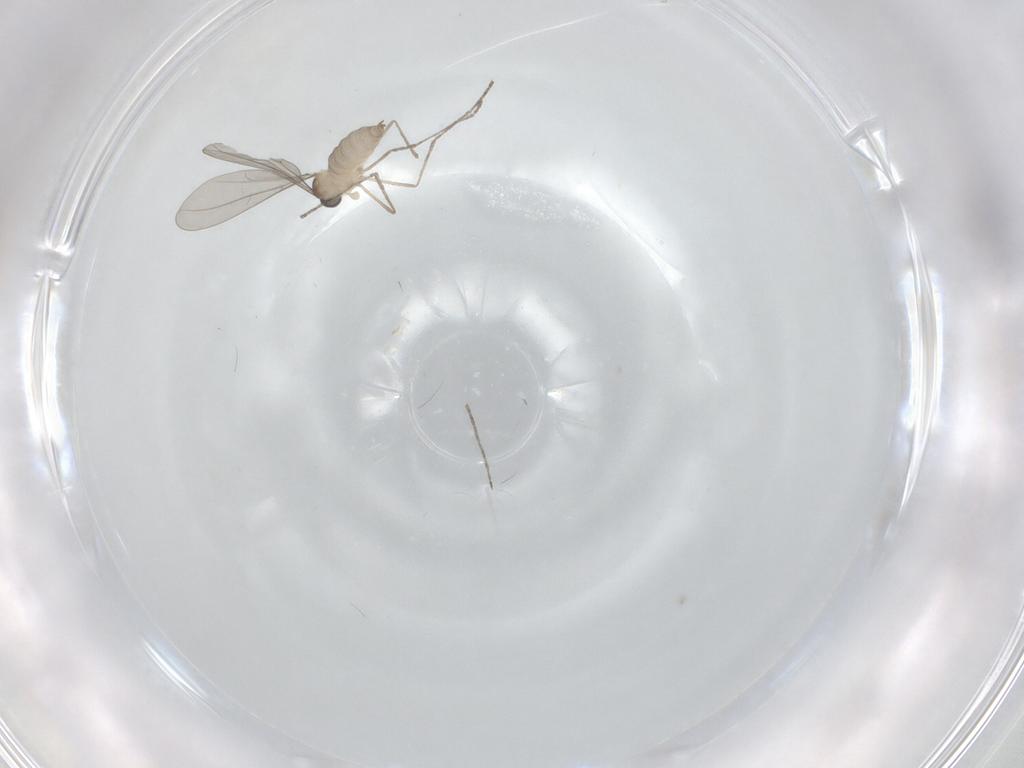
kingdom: Animalia
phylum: Arthropoda
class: Insecta
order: Diptera
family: Cecidomyiidae
